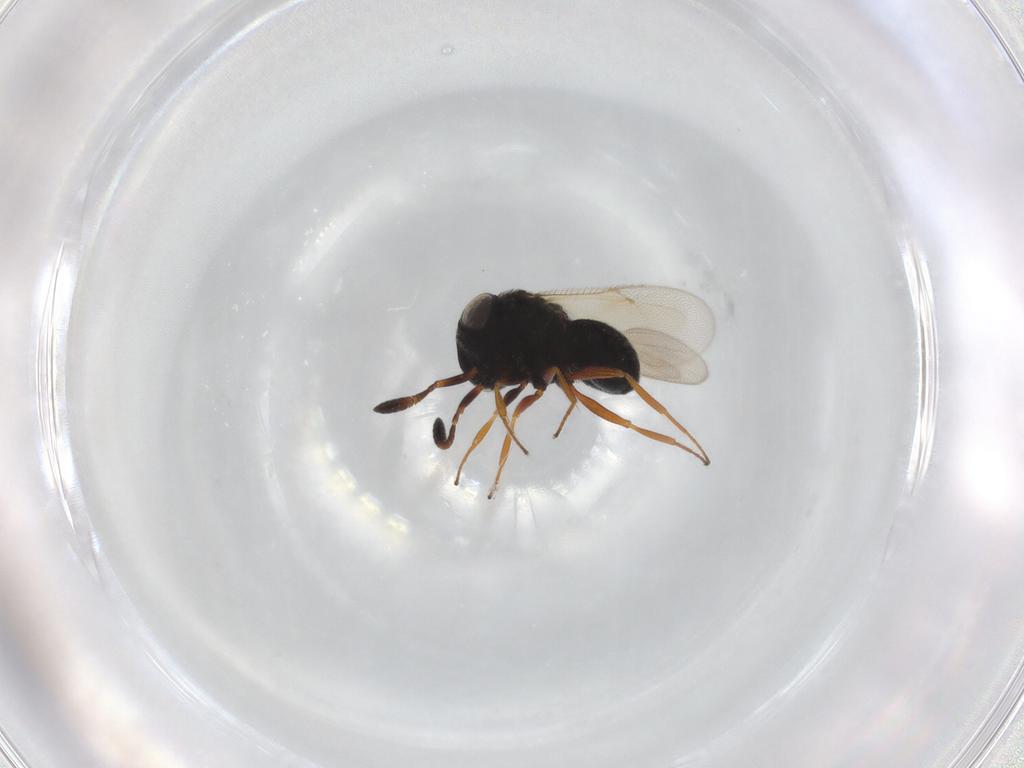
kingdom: Animalia
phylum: Arthropoda
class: Insecta
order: Hymenoptera
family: Scelionidae
